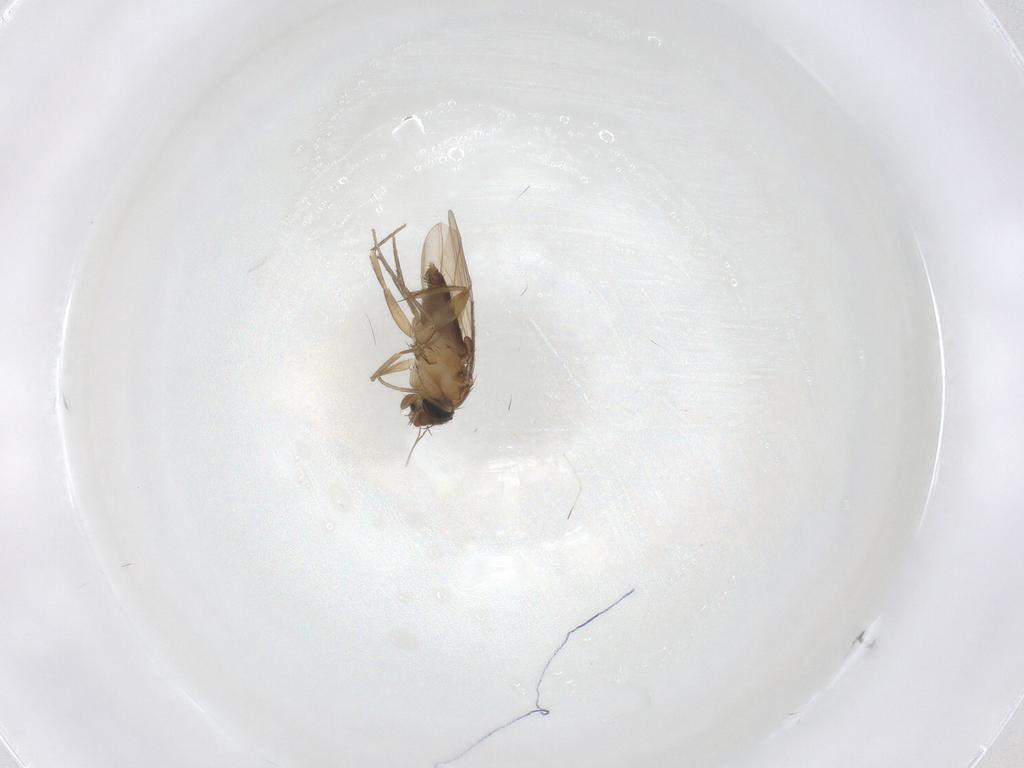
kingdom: Animalia
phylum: Arthropoda
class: Insecta
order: Diptera
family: Phoridae
